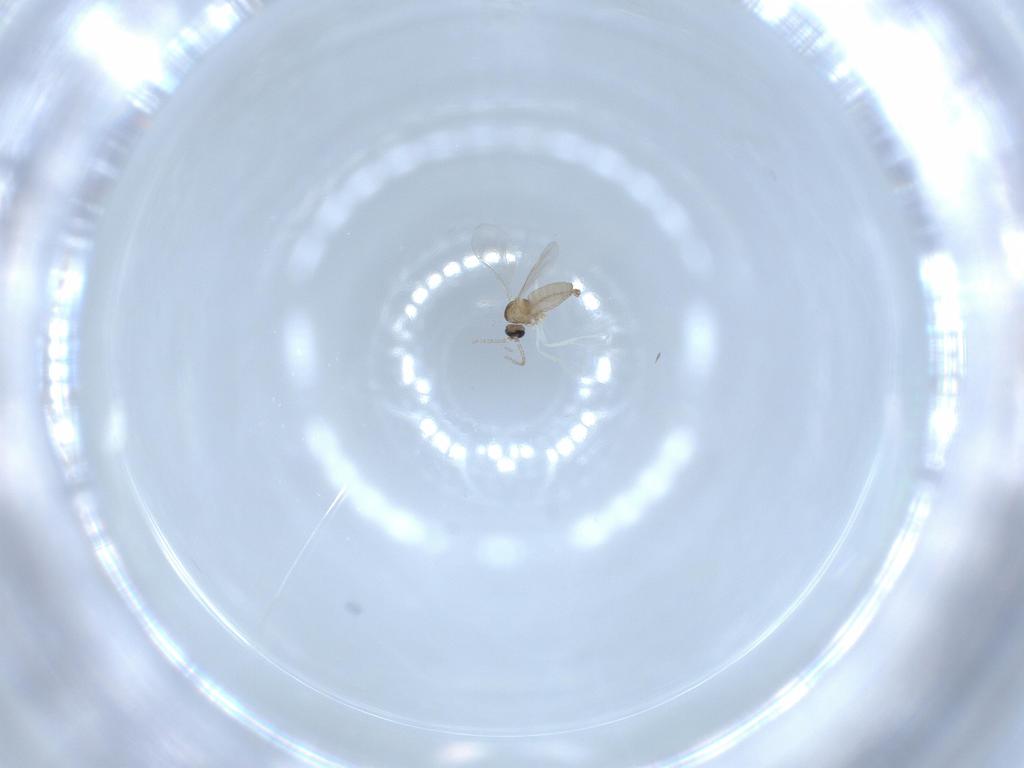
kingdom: Animalia
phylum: Arthropoda
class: Insecta
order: Diptera
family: Cecidomyiidae
